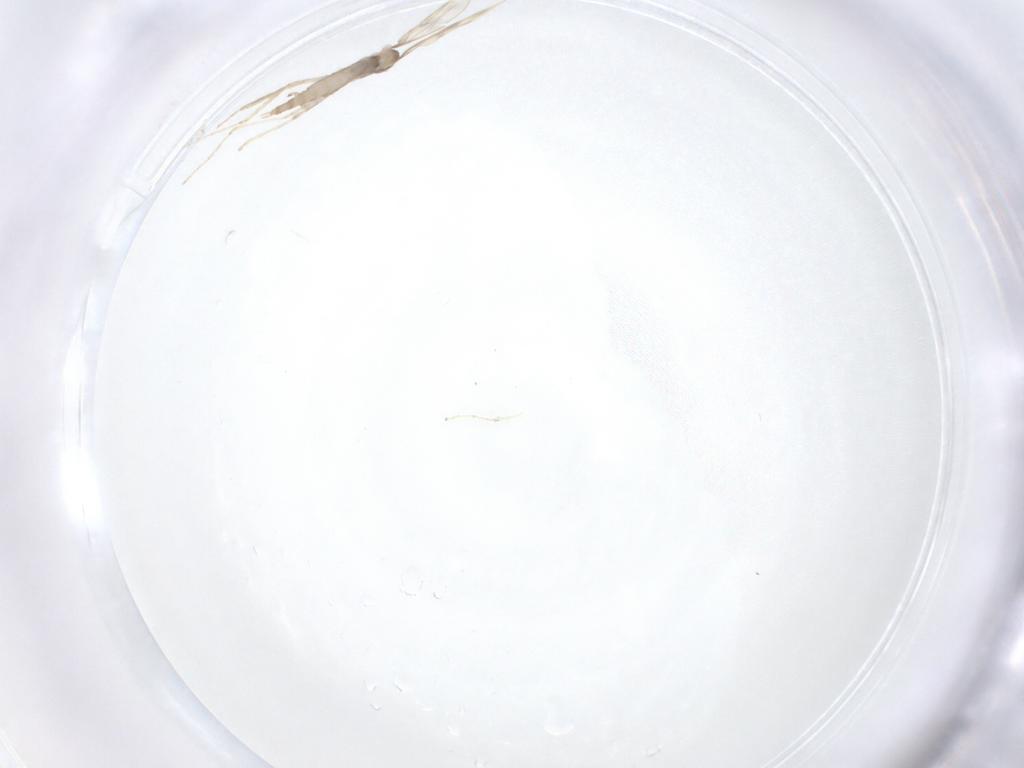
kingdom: Animalia
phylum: Arthropoda
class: Insecta
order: Diptera
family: Cecidomyiidae
